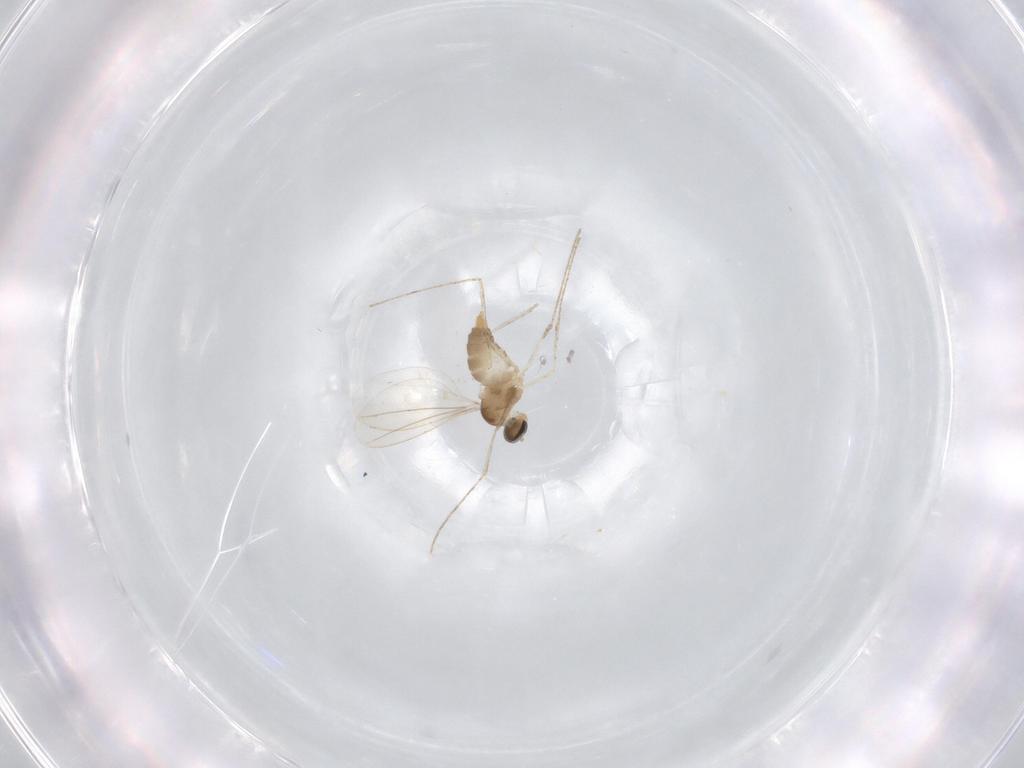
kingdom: Animalia
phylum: Arthropoda
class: Insecta
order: Diptera
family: Cecidomyiidae
